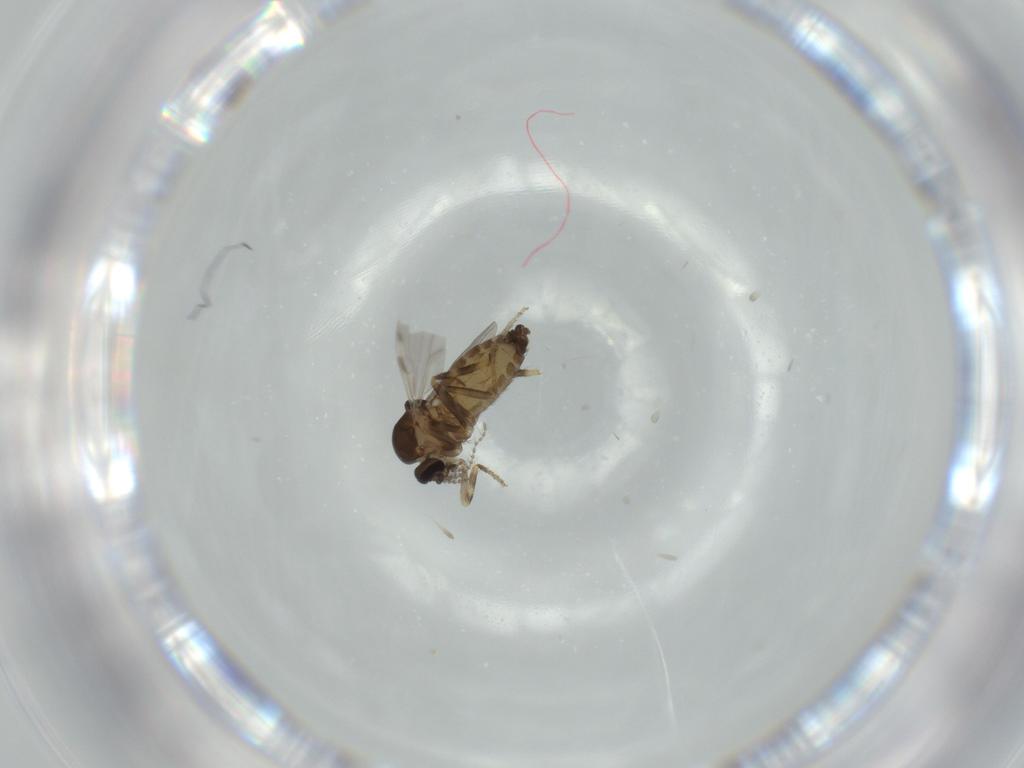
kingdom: Animalia
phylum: Arthropoda
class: Insecta
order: Diptera
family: Ceratopogonidae
